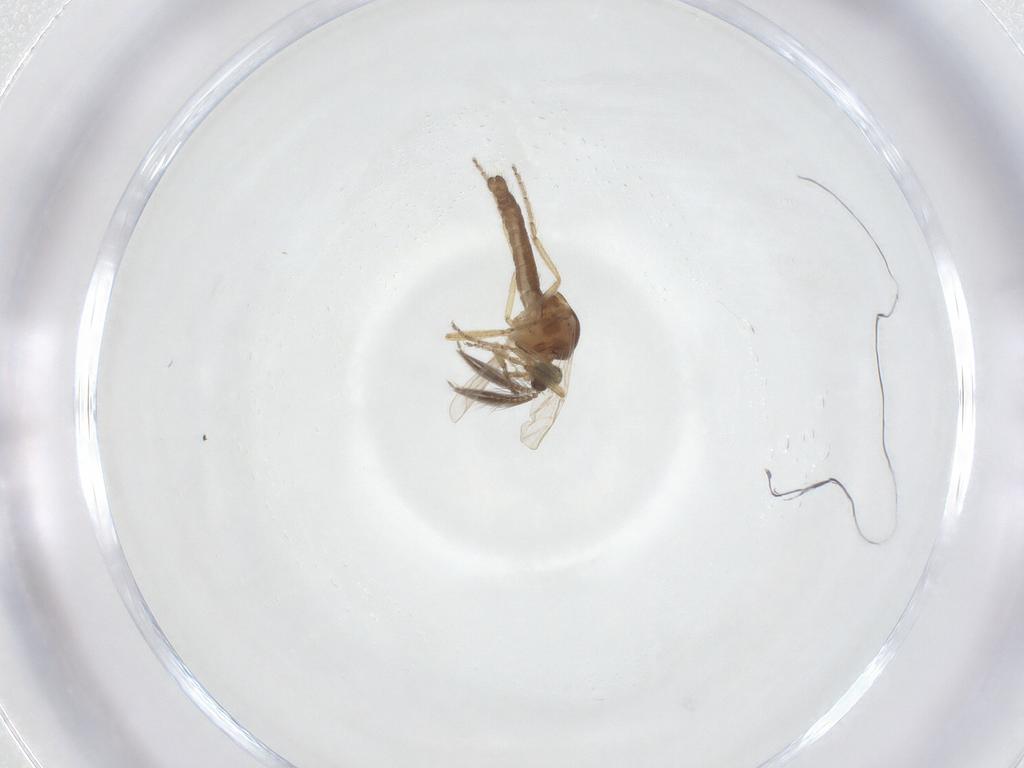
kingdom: Animalia
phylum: Arthropoda
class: Insecta
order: Diptera
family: Ceratopogonidae
